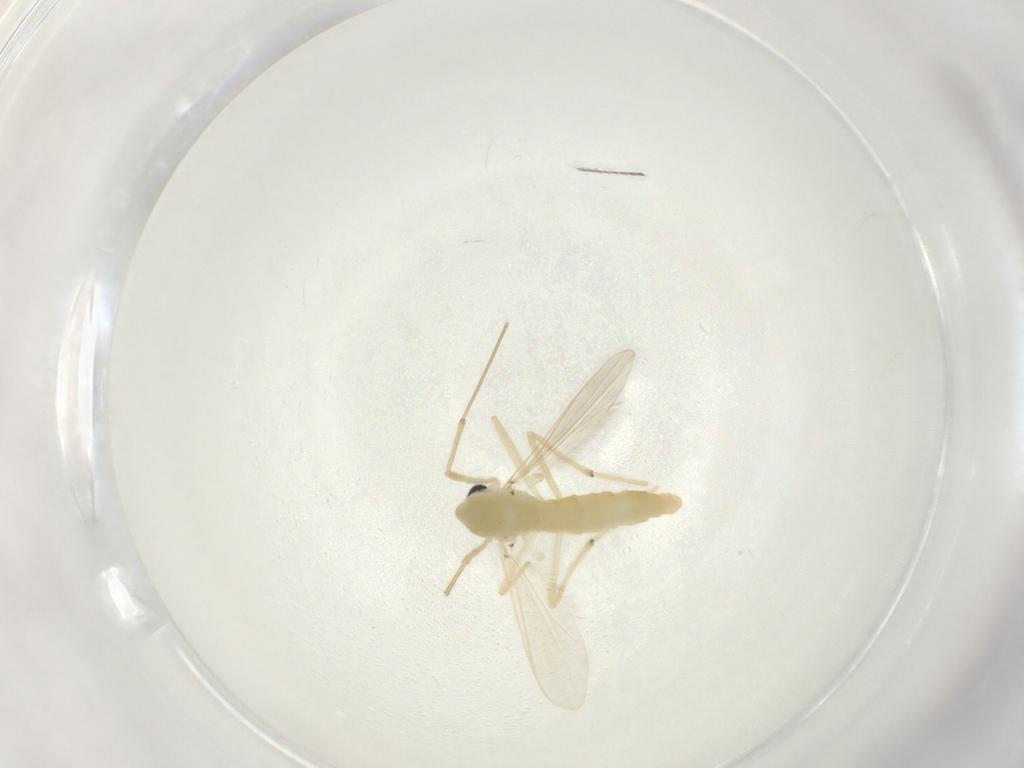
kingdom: Animalia
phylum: Arthropoda
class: Insecta
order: Diptera
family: Chironomidae
